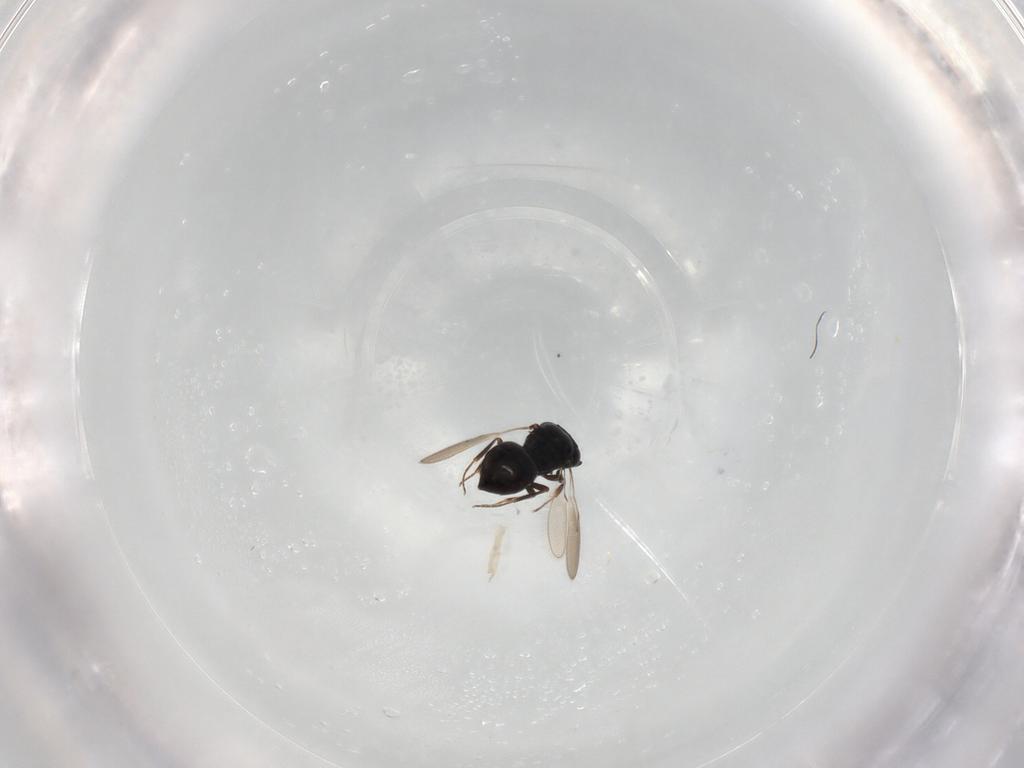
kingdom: Animalia
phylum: Arthropoda
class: Insecta
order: Hymenoptera
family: Scelionidae
